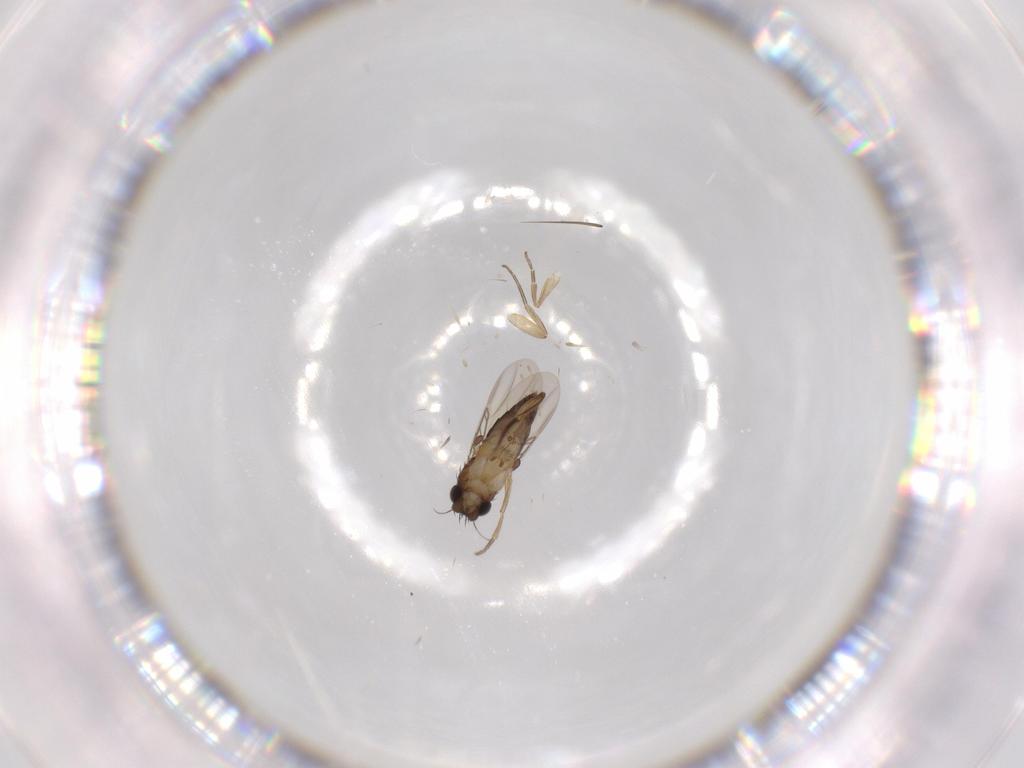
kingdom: Animalia
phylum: Arthropoda
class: Insecta
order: Diptera
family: Phoridae
